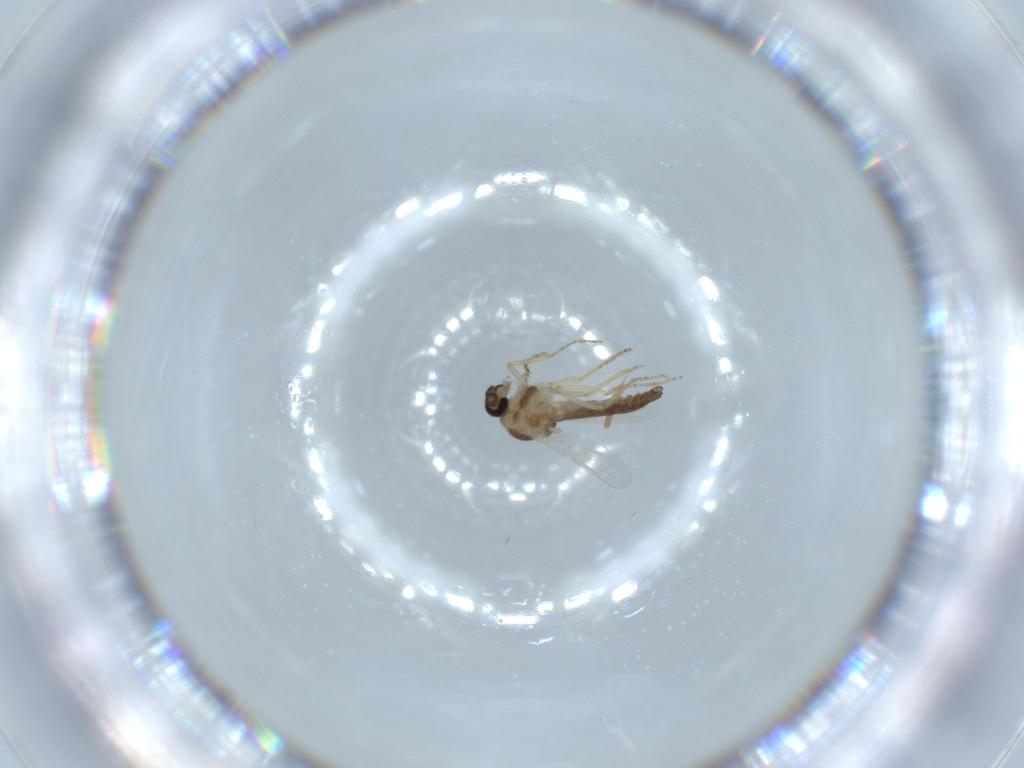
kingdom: Animalia
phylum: Arthropoda
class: Insecta
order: Diptera
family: Ceratopogonidae
